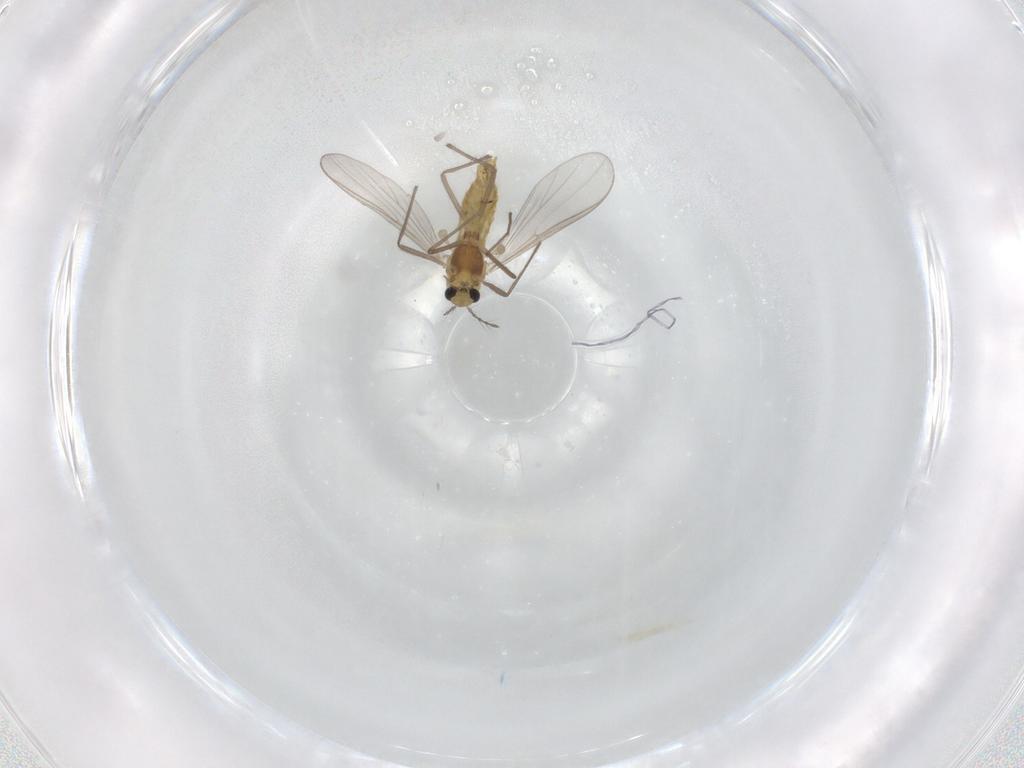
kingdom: Animalia
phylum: Arthropoda
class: Insecta
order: Diptera
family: Chironomidae
